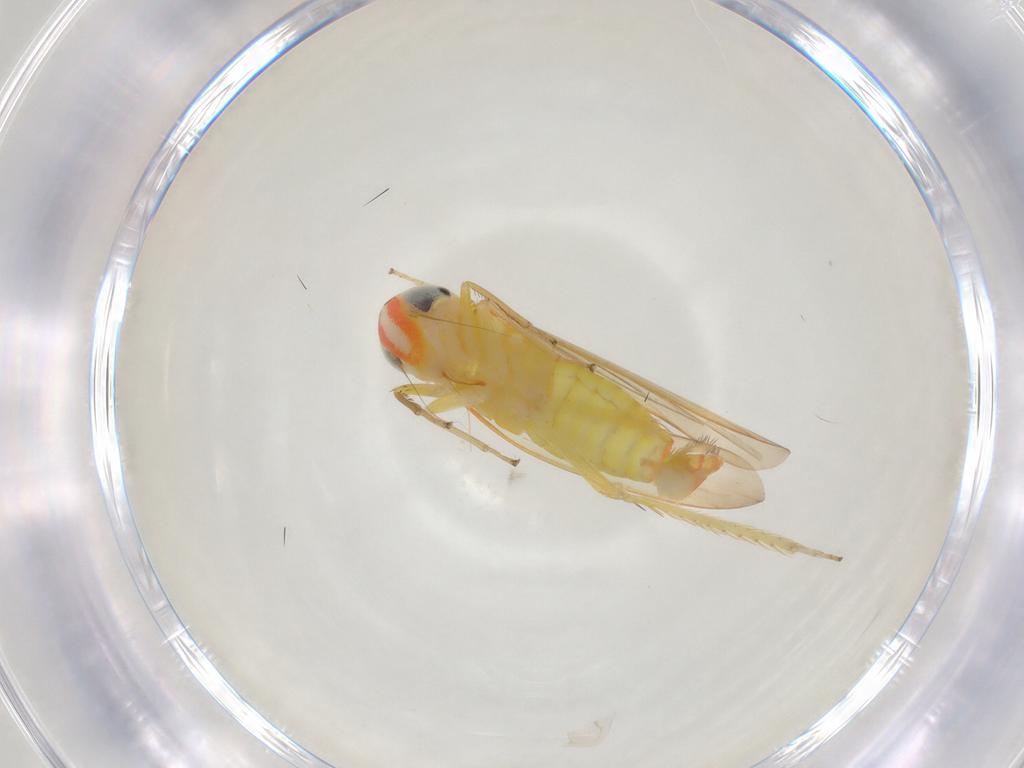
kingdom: Animalia
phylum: Arthropoda
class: Insecta
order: Hemiptera
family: Cicadellidae
